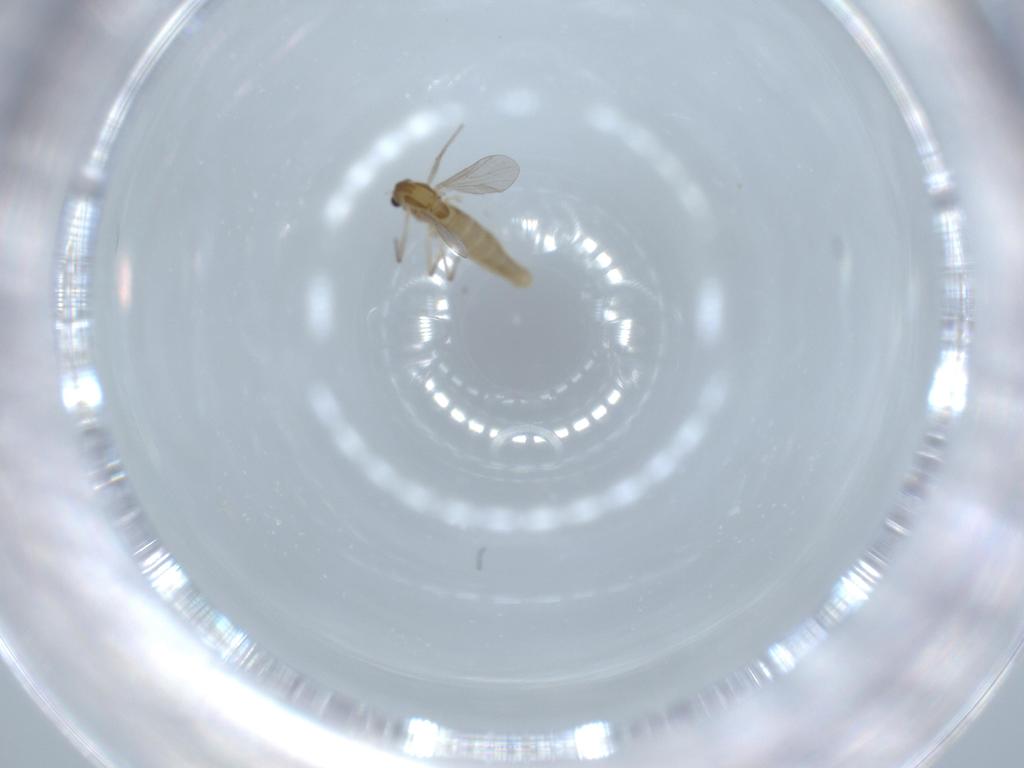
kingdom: Animalia
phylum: Arthropoda
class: Insecta
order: Diptera
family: Chironomidae
